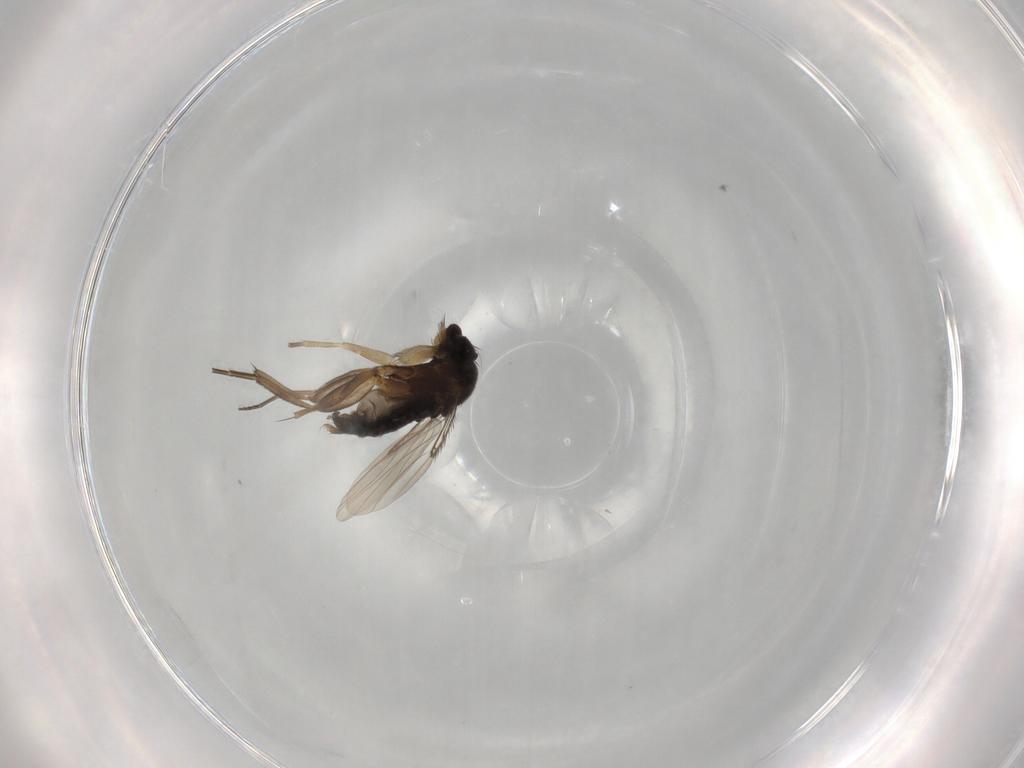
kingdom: Animalia
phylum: Arthropoda
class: Insecta
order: Diptera
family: Phoridae
